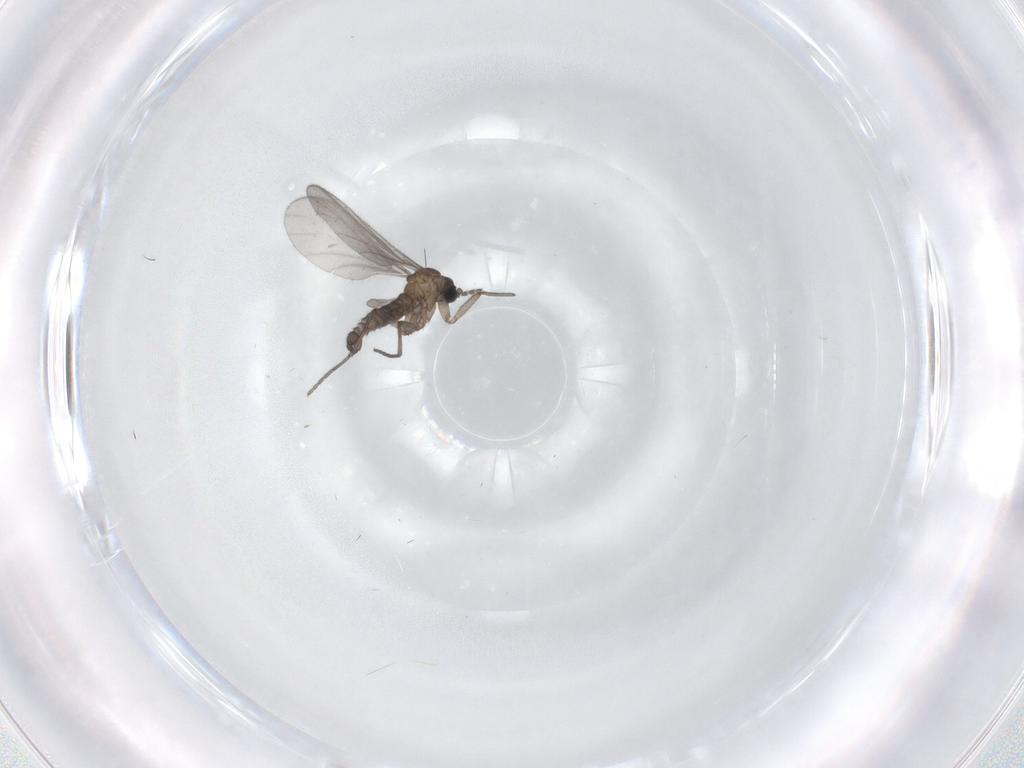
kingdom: Animalia
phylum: Arthropoda
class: Insecta
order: Diptera
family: Sciaridae
